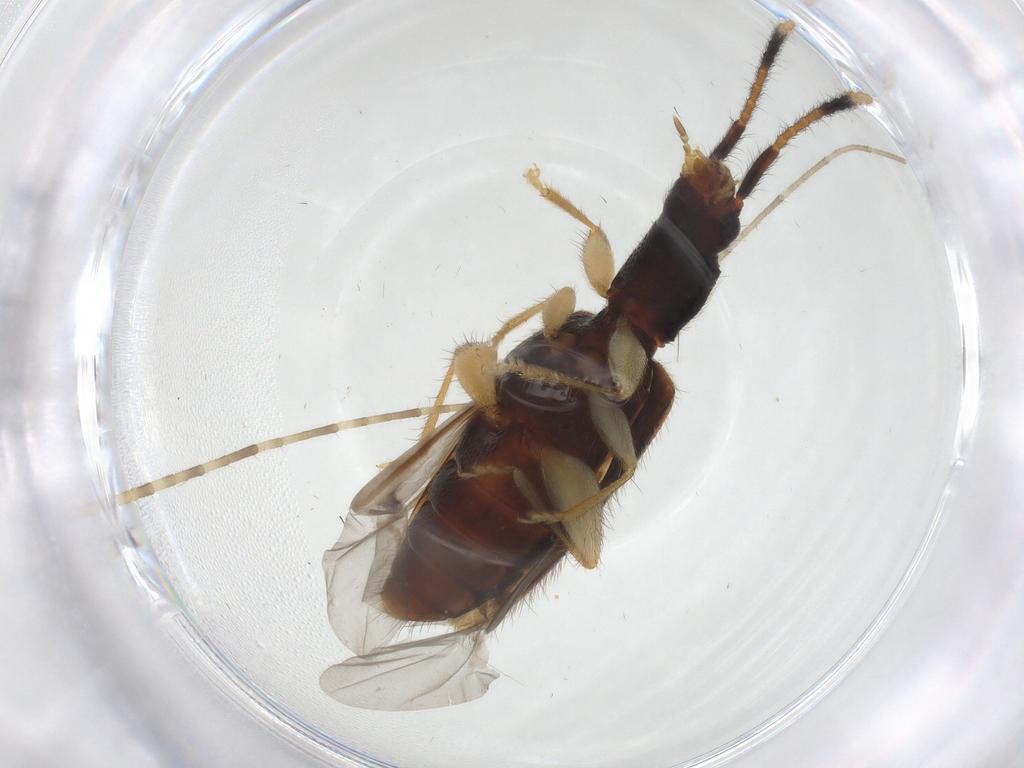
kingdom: Animalia
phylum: Arthropoda
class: Insecta
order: Coleoptera
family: Silvanidae
